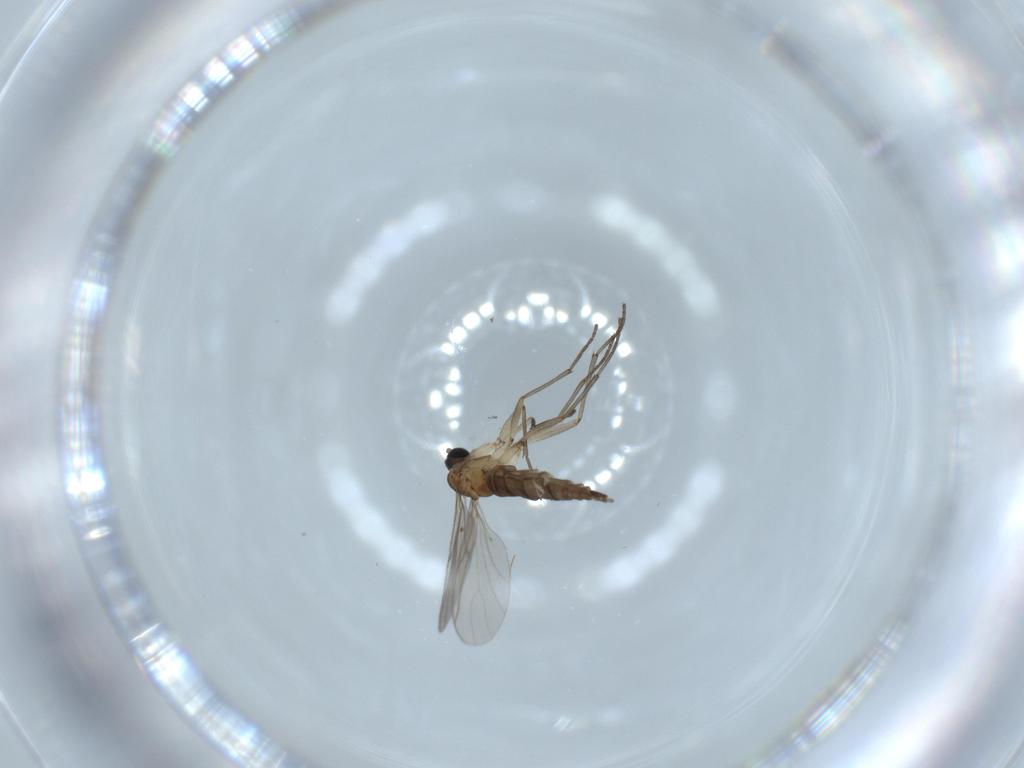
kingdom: Animalia
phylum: Arthropoda
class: Insecta
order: Diptera
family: Sciaridae
